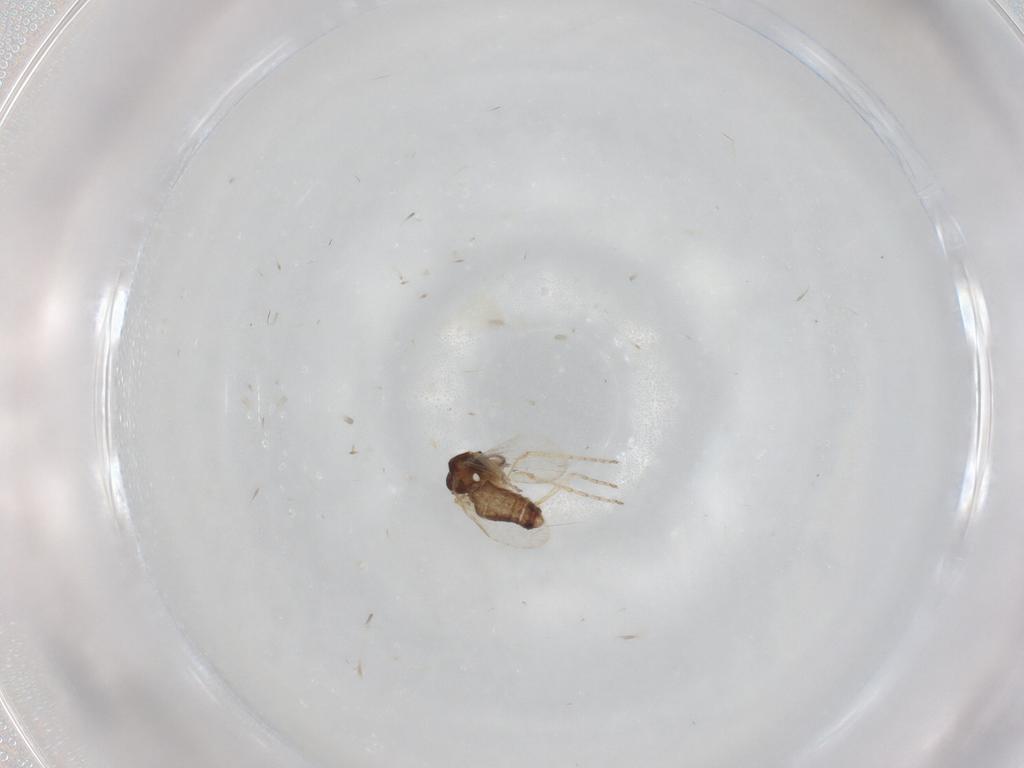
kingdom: Animalia
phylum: Arthropoda
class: Insecta
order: Diptera
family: Ceratopogonidae
